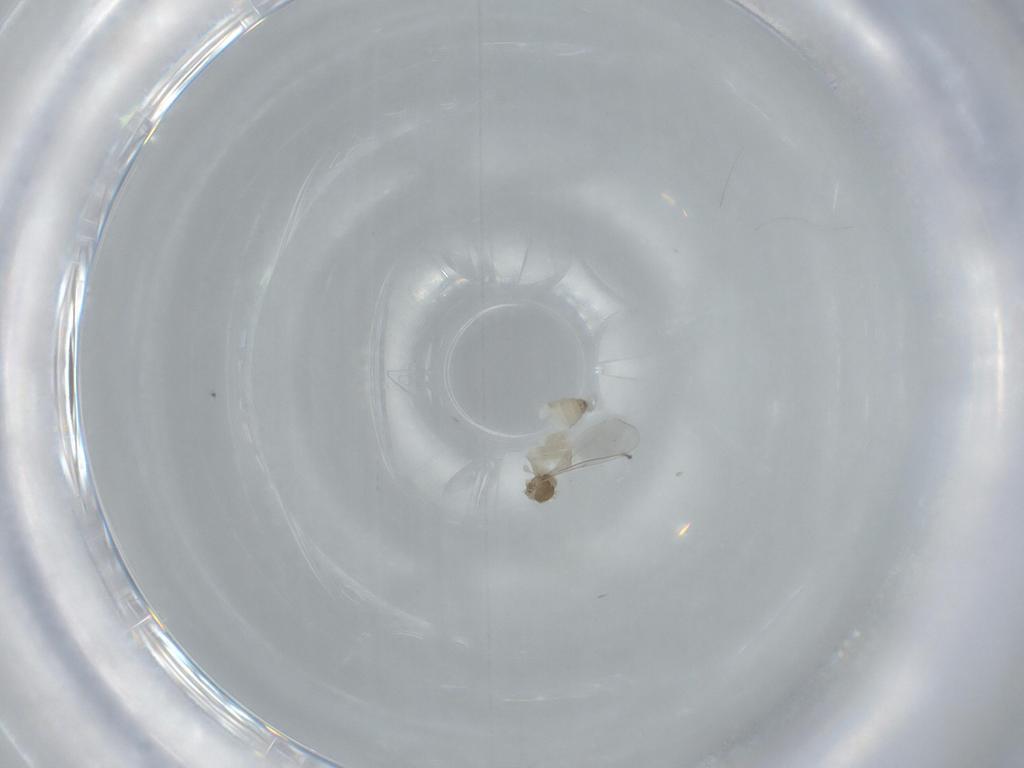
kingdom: Animalia
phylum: Arthropoda
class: Insecta
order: Diptera
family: Cecidomyiidae
